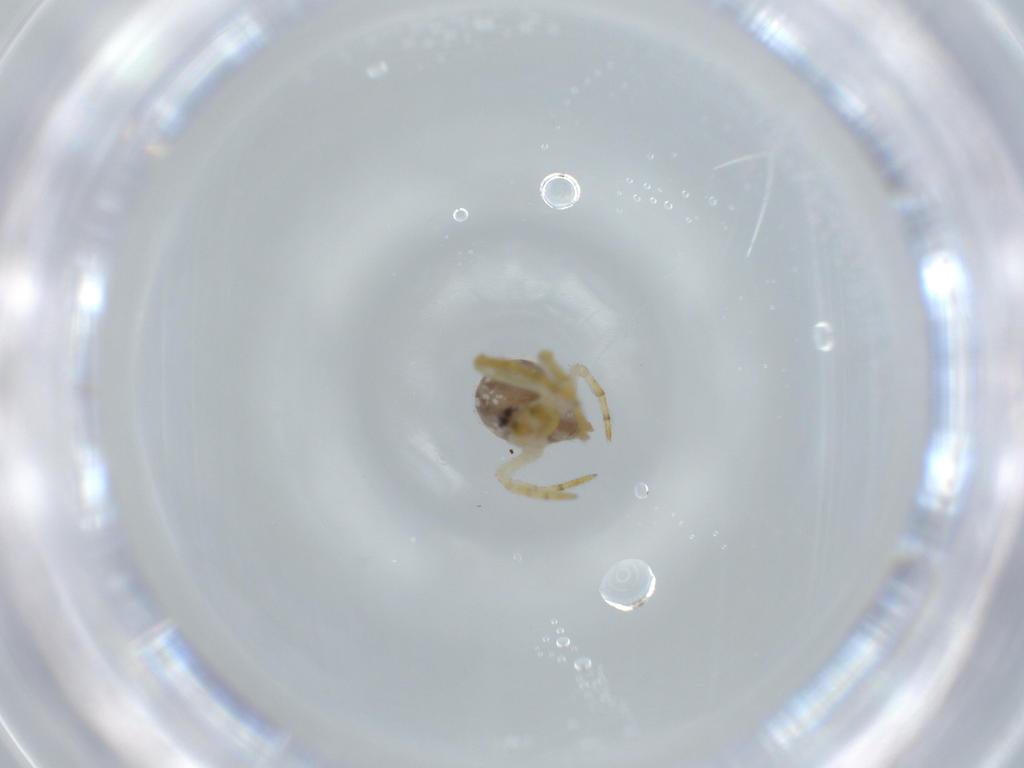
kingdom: Animalia
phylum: Arthropoda
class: Arachnida
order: Araneae
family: Theridiidae
